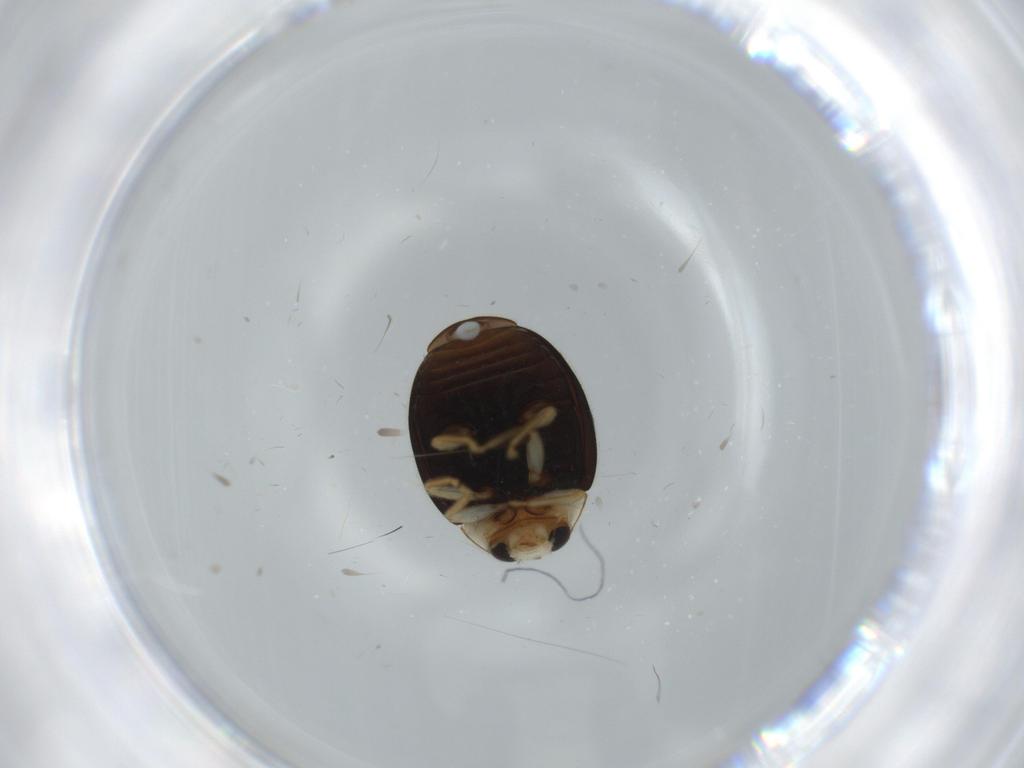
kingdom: Animalia
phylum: Arthropoda
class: Insecta
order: Coleoptera
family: Coccinellidae
